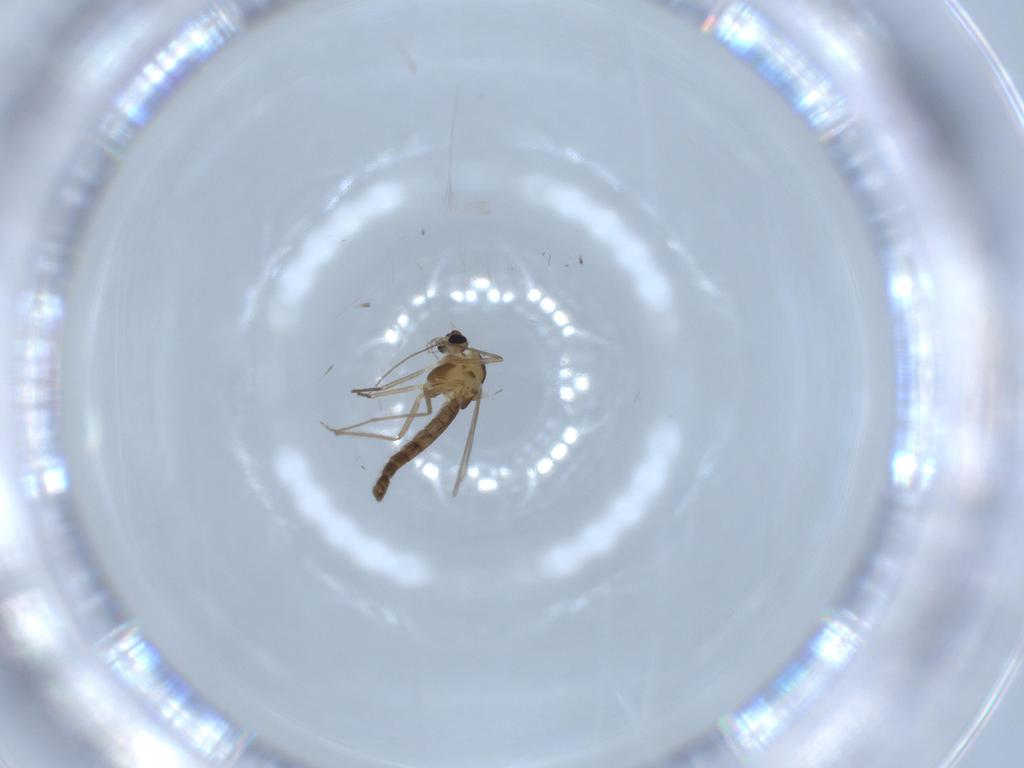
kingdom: Animalia
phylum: Arthropoda
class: Insecta
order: Diptera
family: Chironomidae
